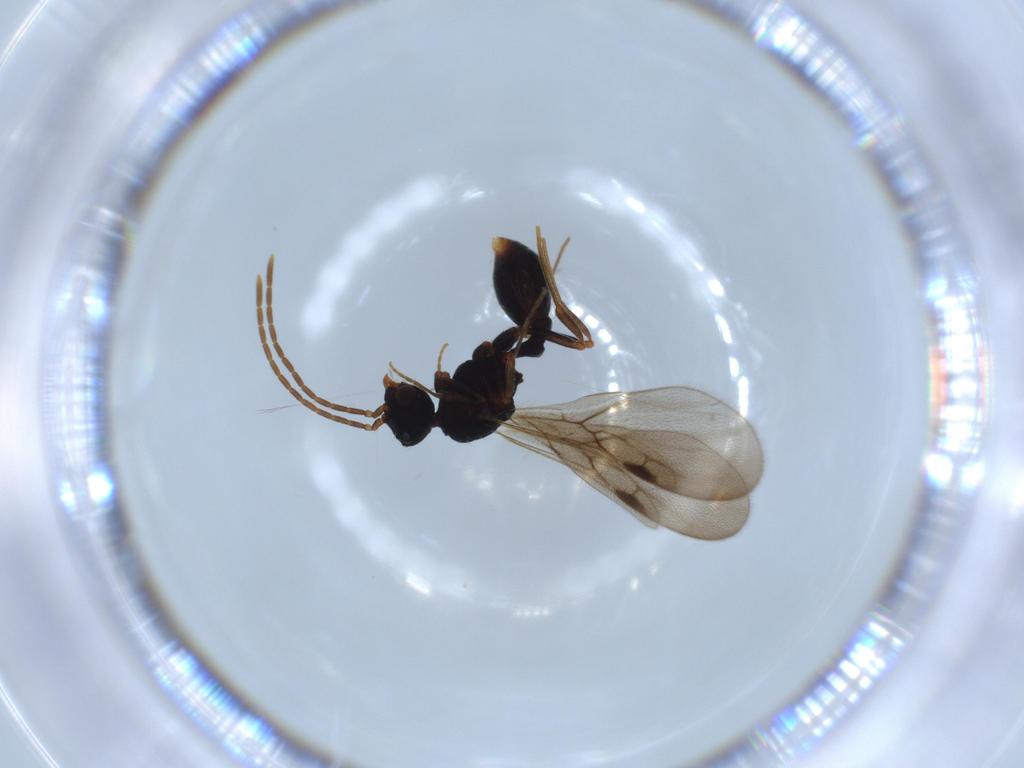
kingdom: Animalia
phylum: Arthropoda
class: Insecta
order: Hymenoptera
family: Formicidae
